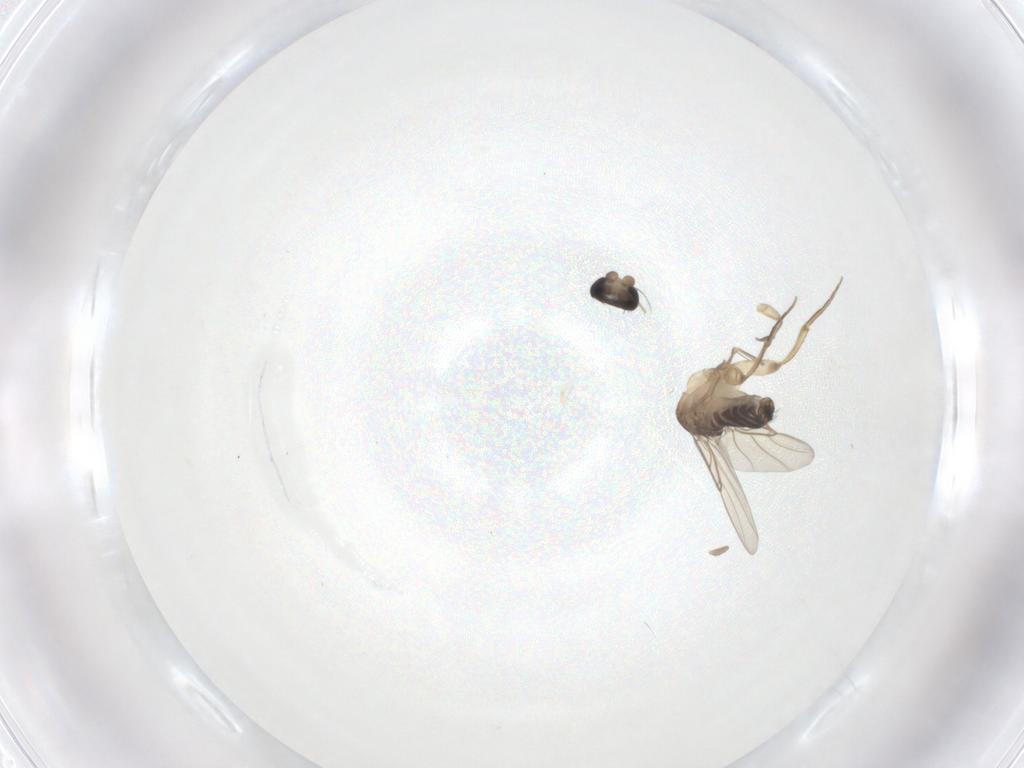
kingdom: Animalia
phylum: Arthropoda
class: Insecta
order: Diptera
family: Phoridae
